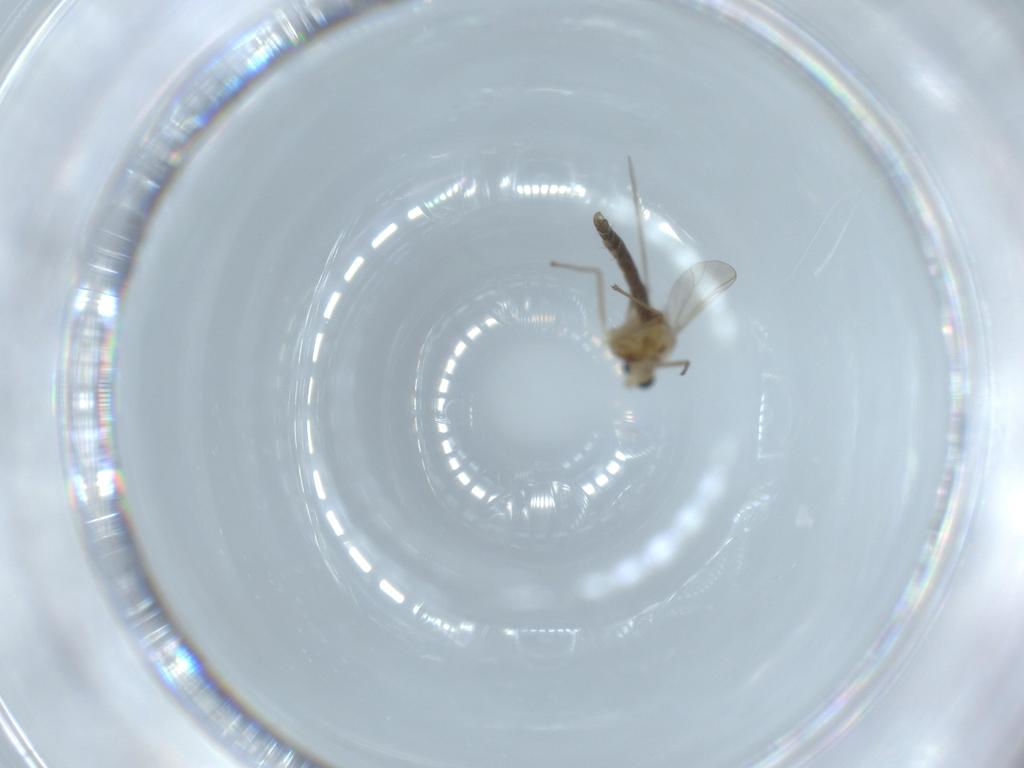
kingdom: Animalia
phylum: Arthropoda
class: Insecta
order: Diptera
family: Chironomidae
